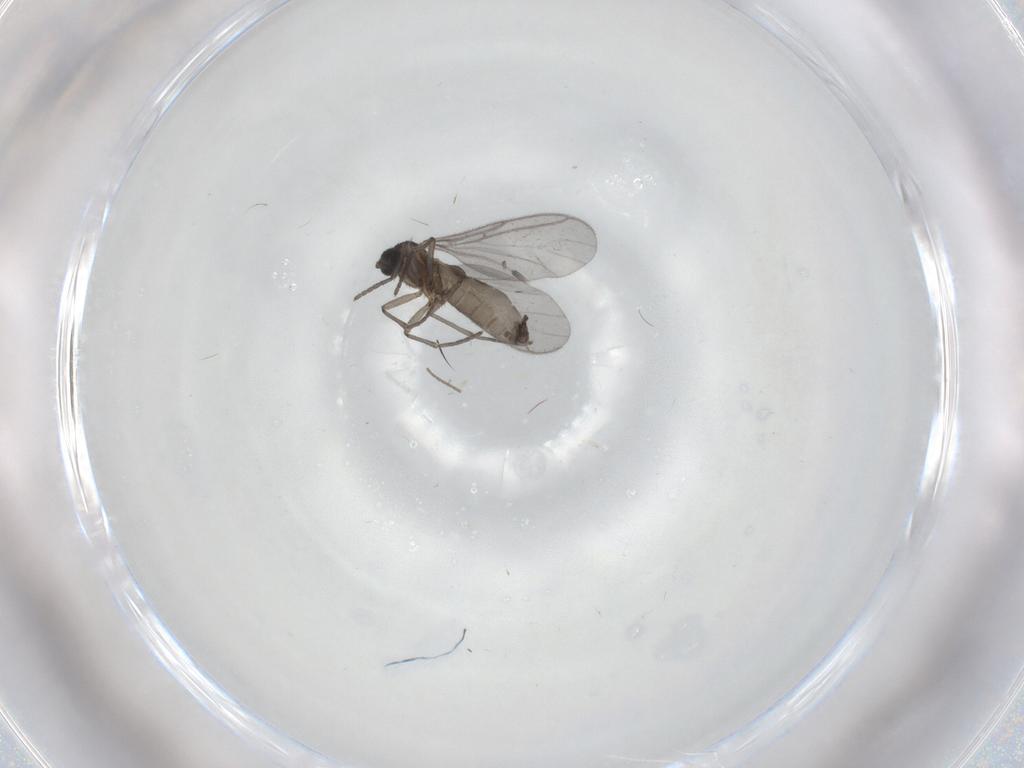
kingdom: Animalia
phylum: Arthropoda
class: Insecta
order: Diptera
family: Sciaridae
